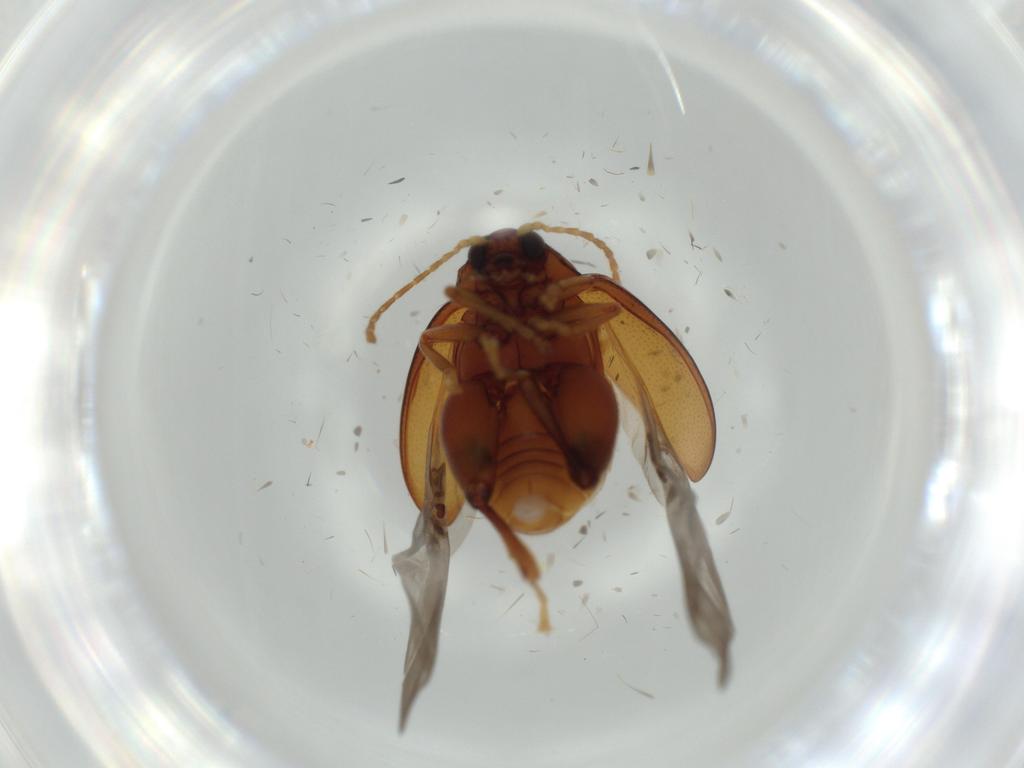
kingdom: Animalia
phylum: Arthropoda
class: Insecta
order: Coleoptera
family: Chrysomelidae
